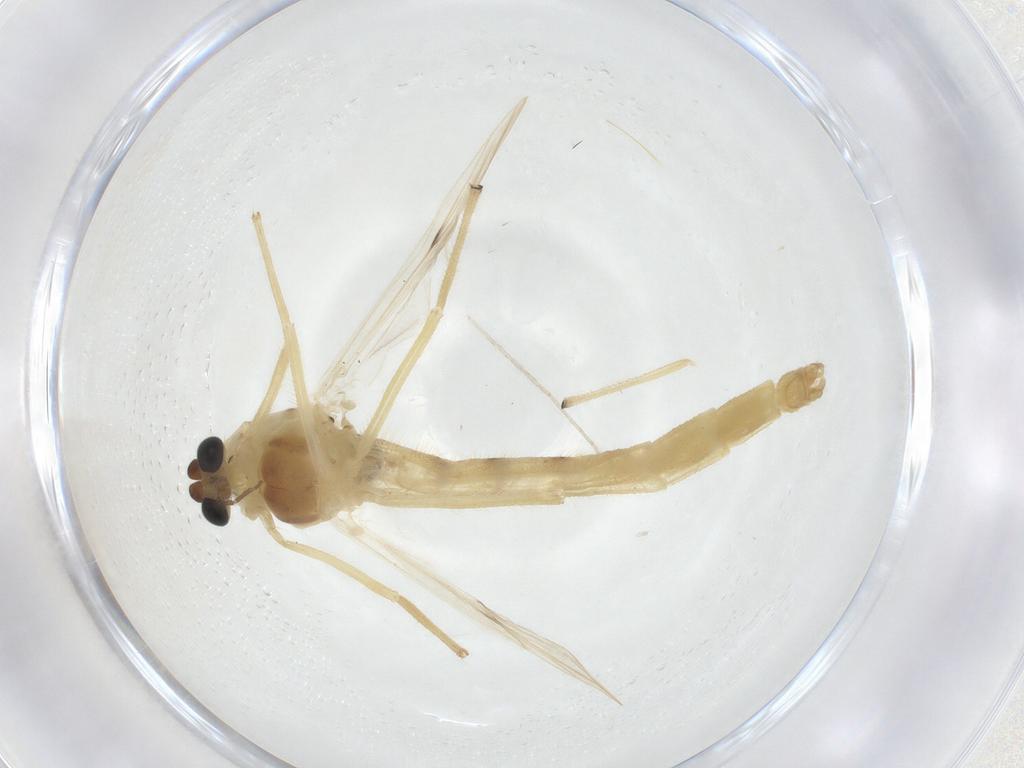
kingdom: Animalia
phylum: Arthropoda
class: Insecta
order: Diptera
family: Chironomidae
